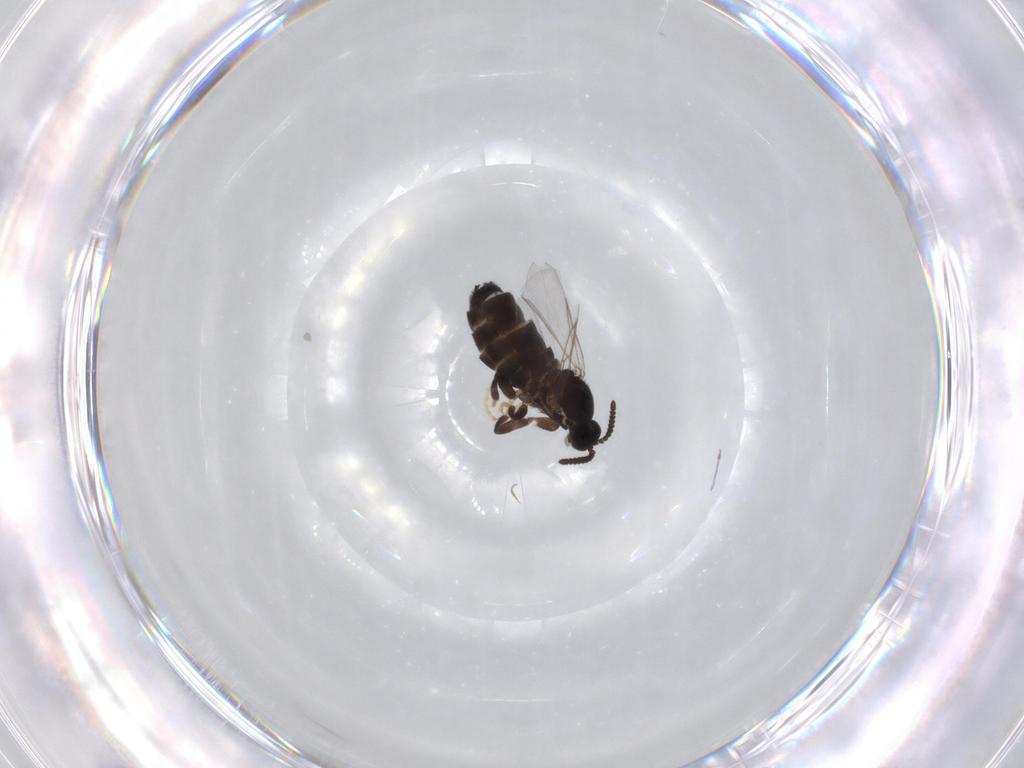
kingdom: Animalia
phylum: Arthropoda
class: Insecta
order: Diptera
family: Scatopsidae
